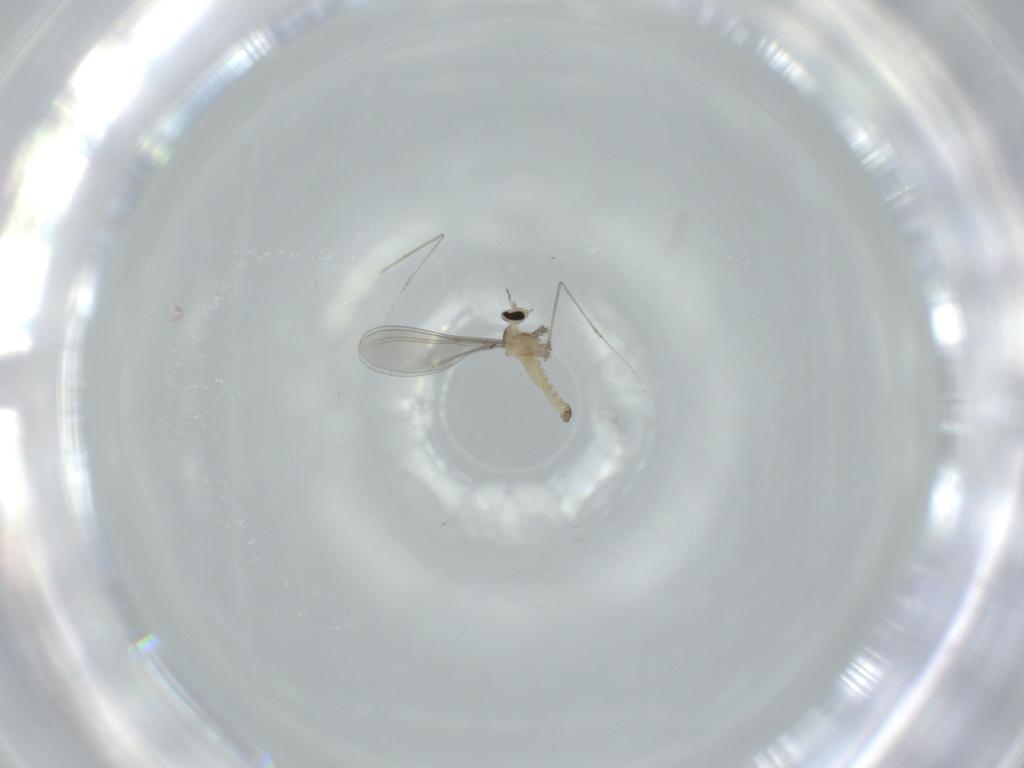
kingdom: Animalia
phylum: Arthropoda
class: Insecta
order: Diptera
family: Cecidomyiidae
